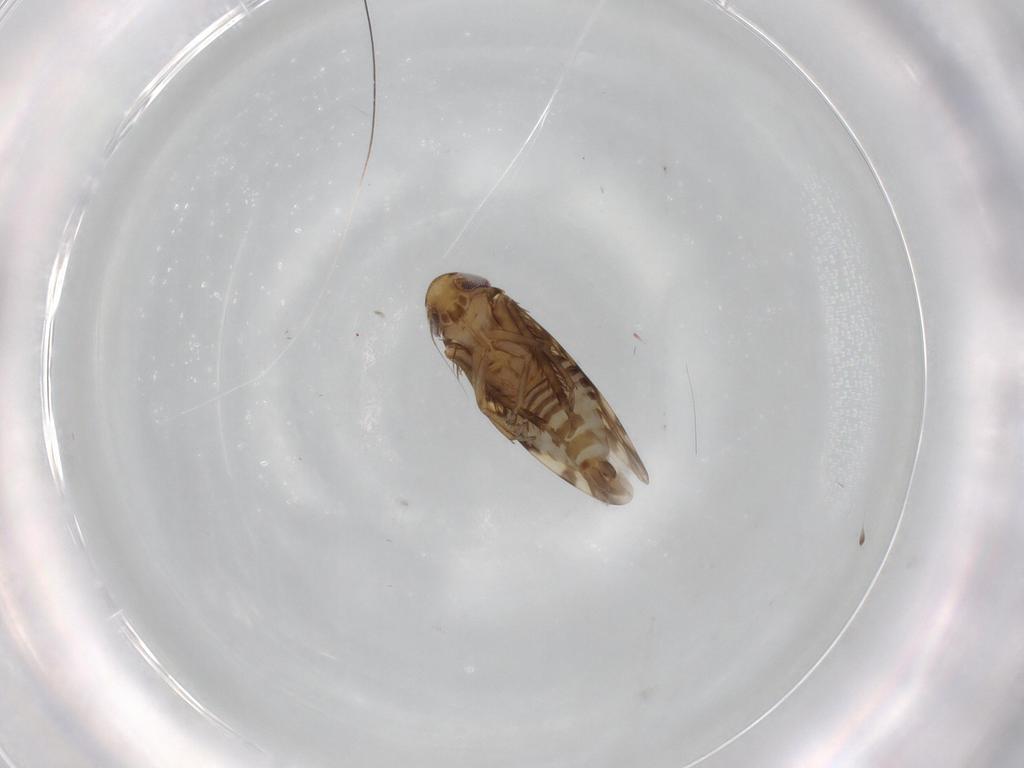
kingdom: Animalia
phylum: Arthropoda
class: Insecta
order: Hemiptera
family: Cicadellidae
